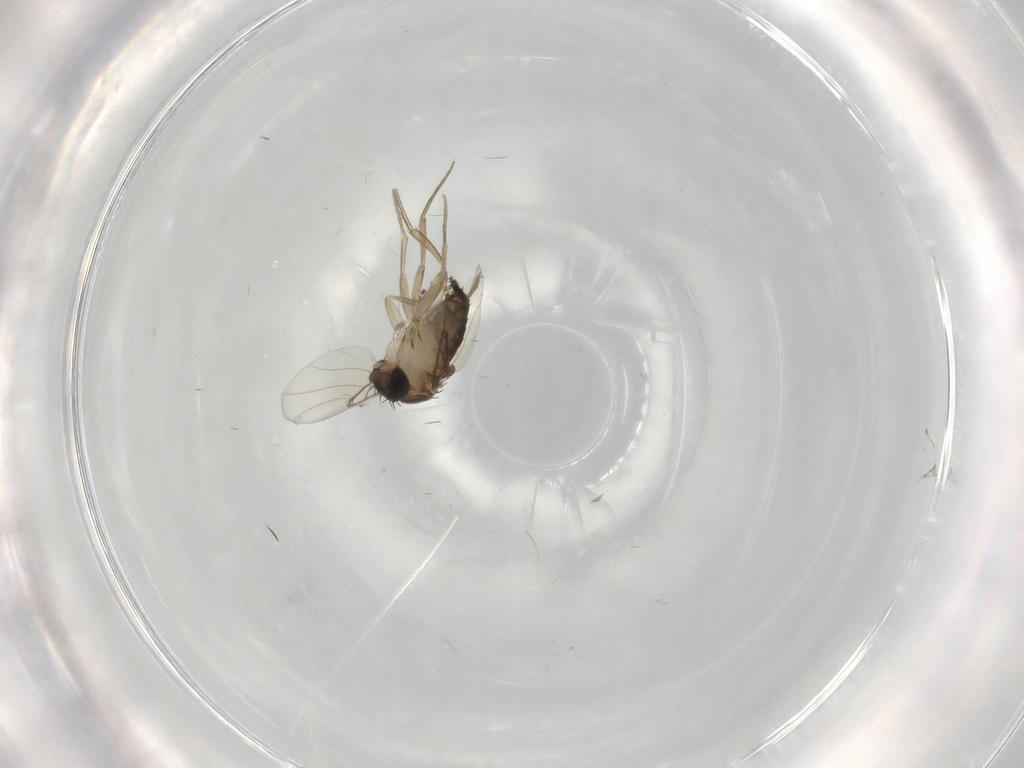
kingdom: Animalia
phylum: Arthropoda
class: Insecta
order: Diptera
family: Sciaridae
